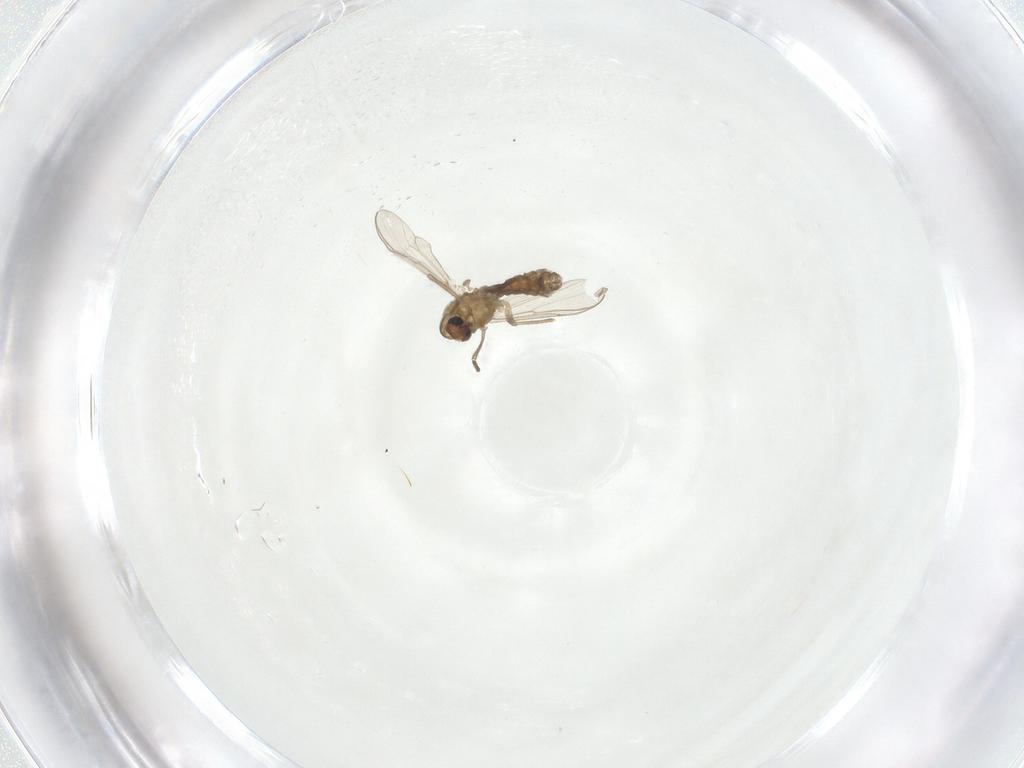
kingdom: Animalia
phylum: Arthropoda
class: Insecta
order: Diptera
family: Chironomidae
